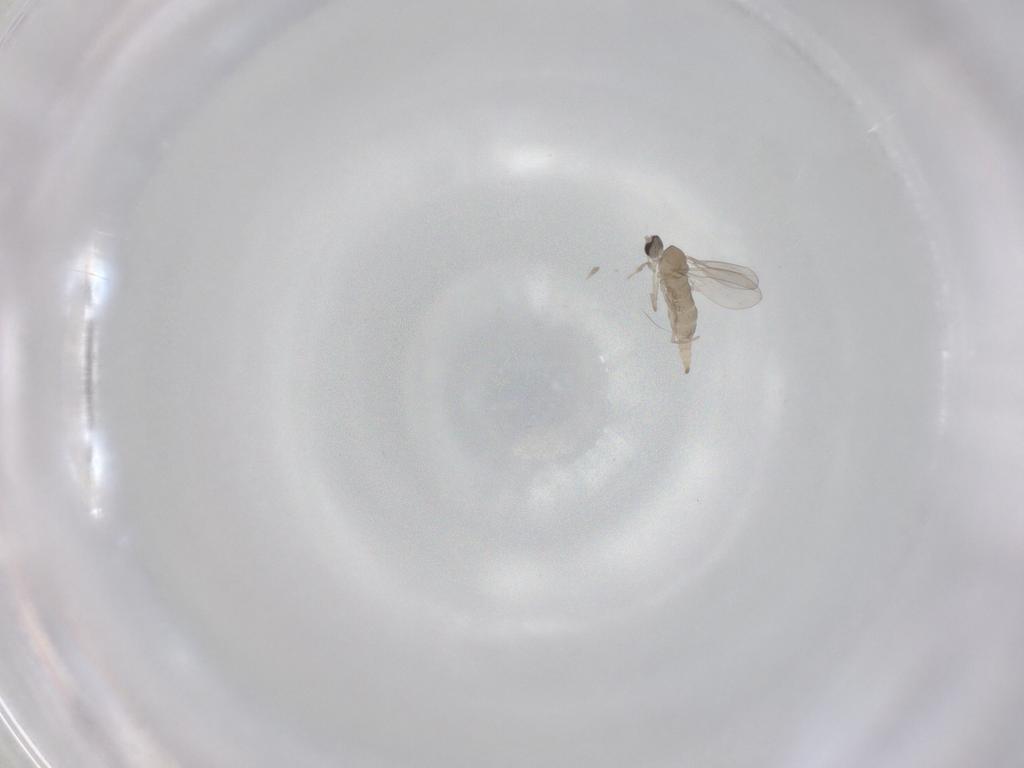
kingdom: Animalia
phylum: Arthropoda
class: Insecta
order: Diptera
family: Cecidomyiidae
